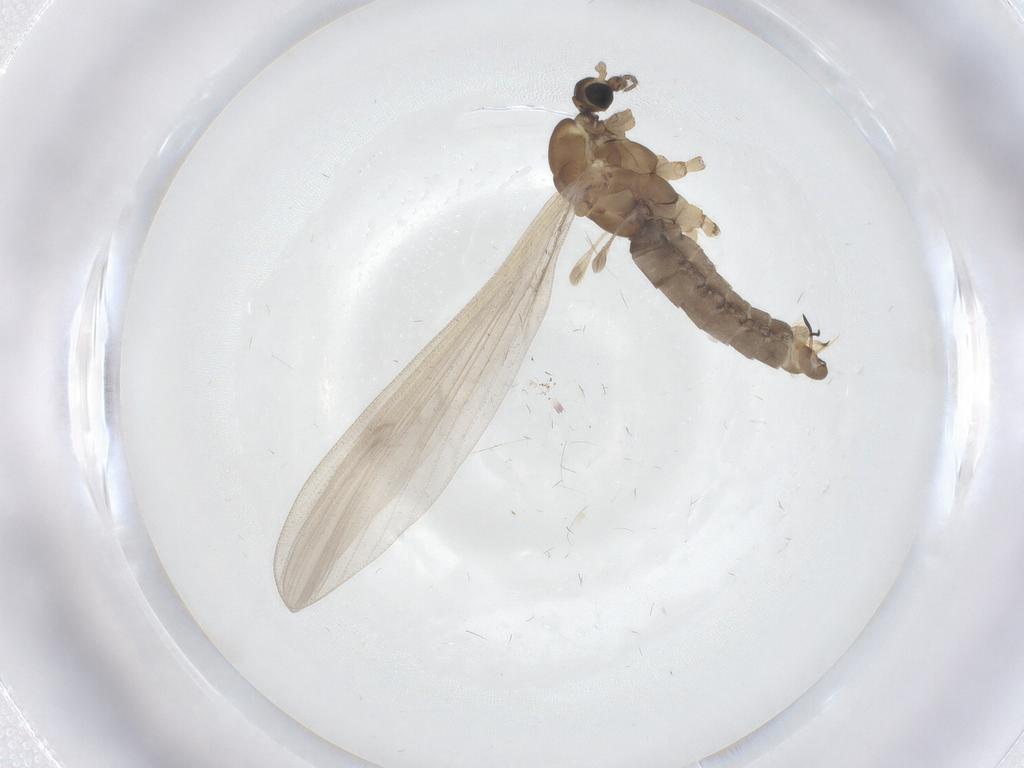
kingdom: Animalia
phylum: Arthropoda
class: Insecta
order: Diptera
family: Limoniidae
